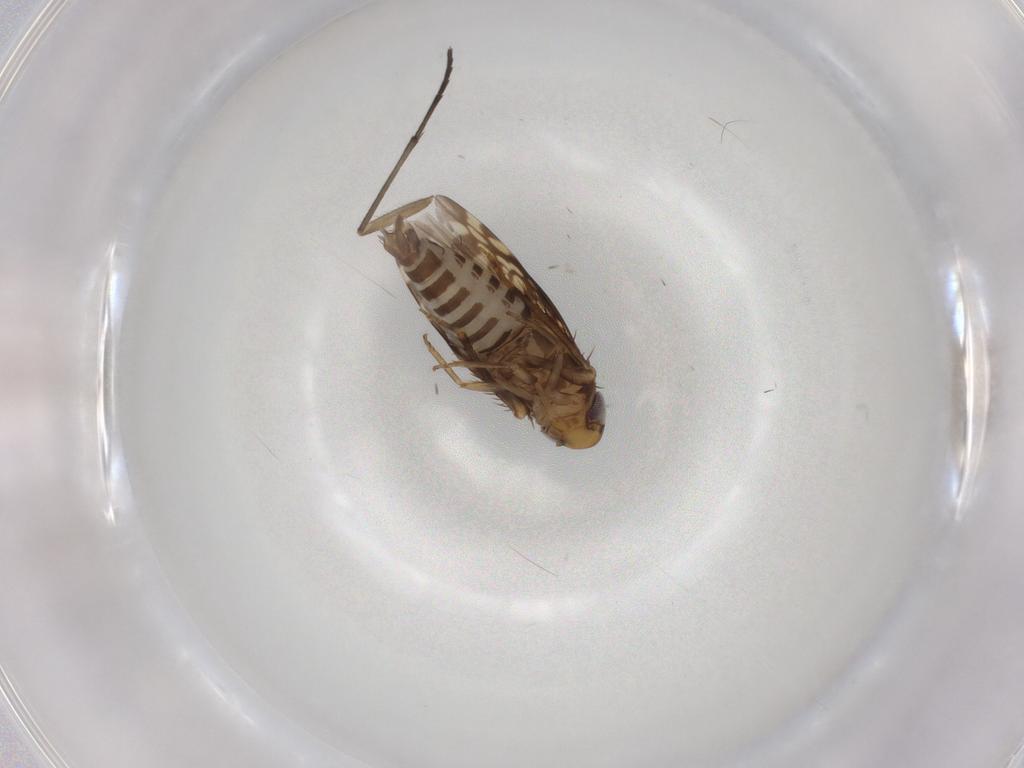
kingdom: Animalia
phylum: Arthropoda
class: Insecta
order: Hemiptera
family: Cicadellidae
